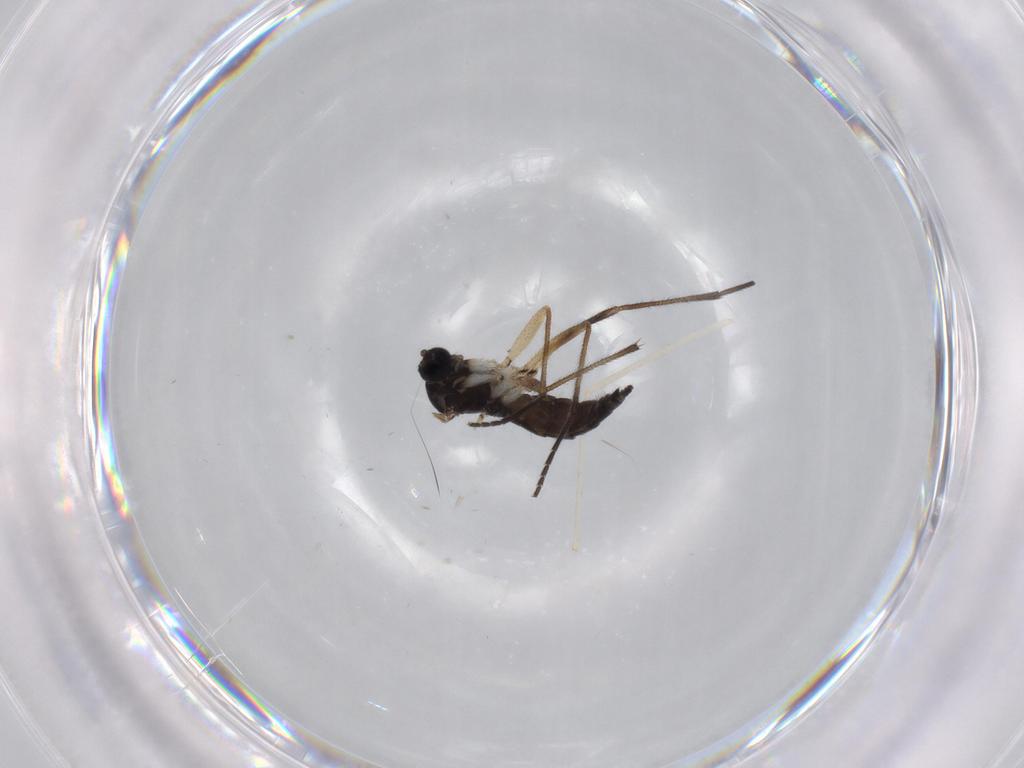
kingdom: Animalia
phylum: Arthropoda
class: Insecta
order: Diptera
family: Sciaridae
